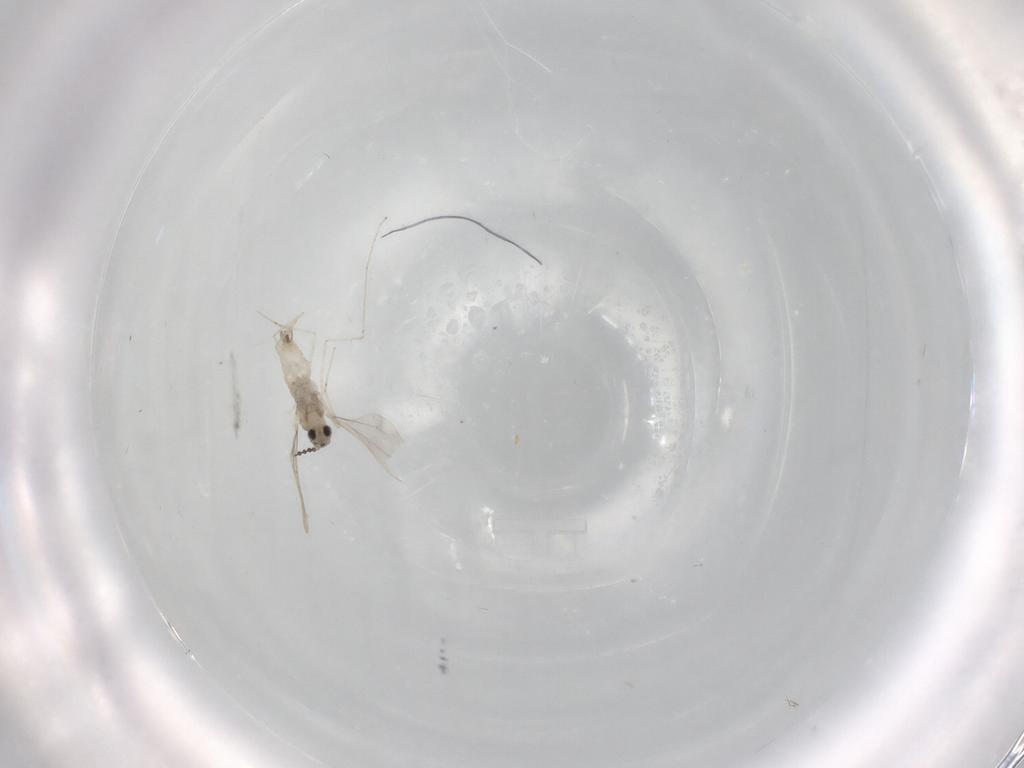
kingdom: Animalia
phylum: Arthropoda
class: Insecta
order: Diptera
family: Cecidomyiidae
